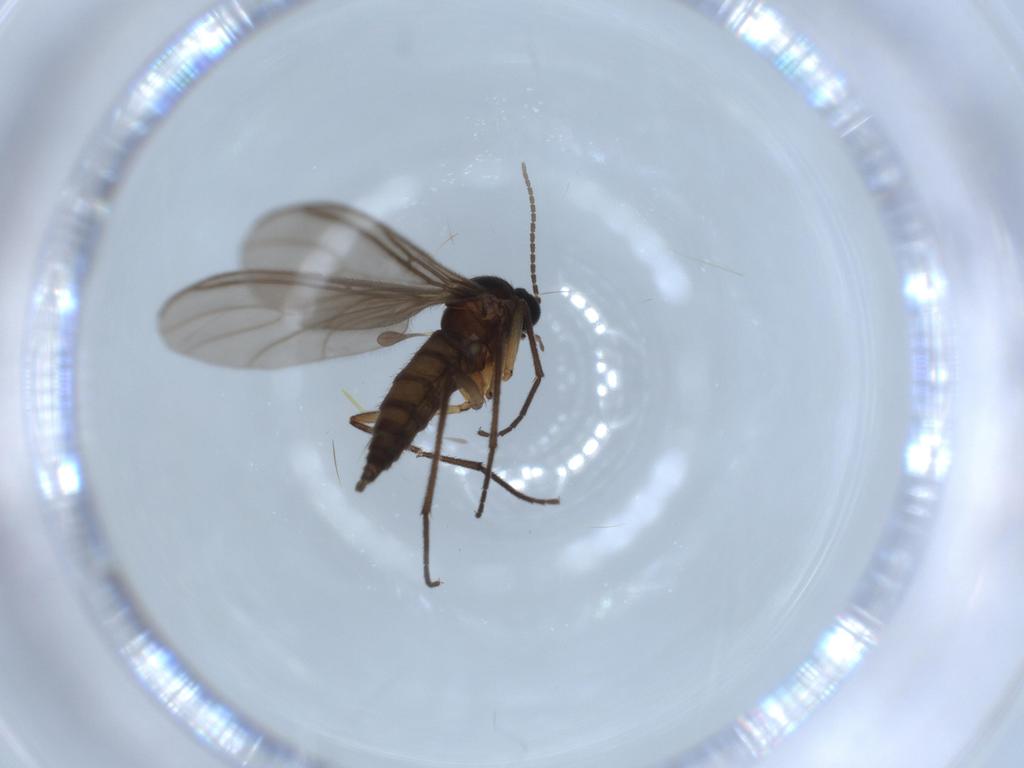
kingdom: Animalia
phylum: Arthropoda
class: Insecta
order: Diptera
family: Sciaridae
